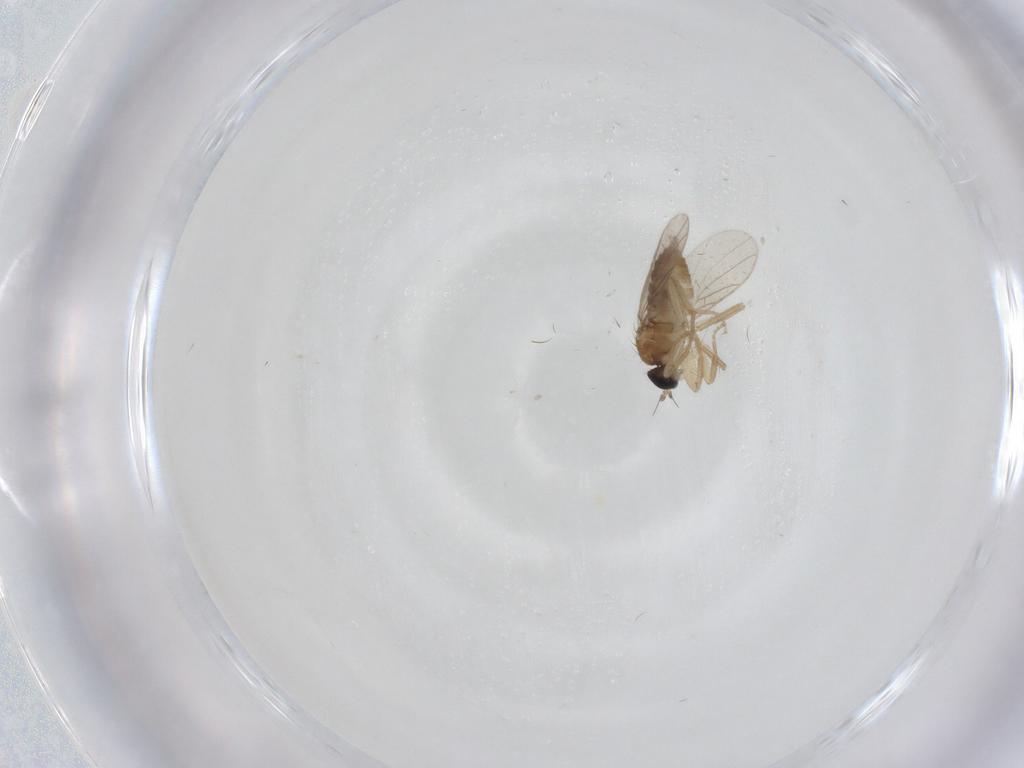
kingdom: Animalia
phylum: Arthropoda
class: Insecta
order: Diptera
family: Hybotidae
